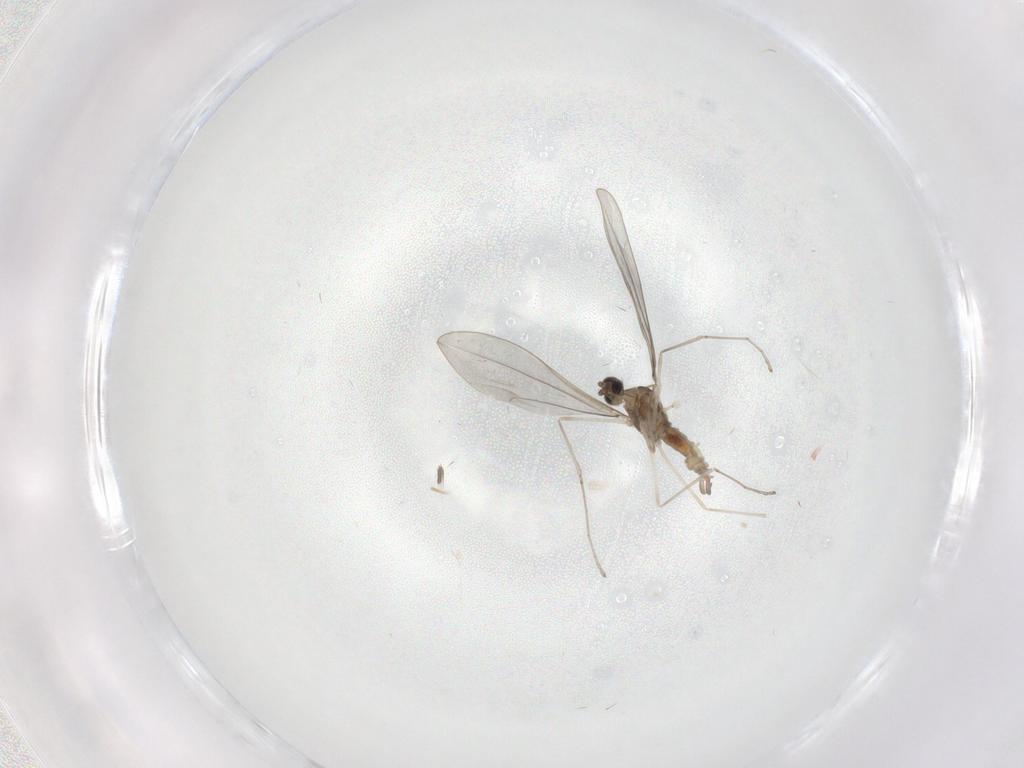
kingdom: Animalia
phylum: Arthropoda
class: Insecta
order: Diptera
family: Cecidomyiidae
